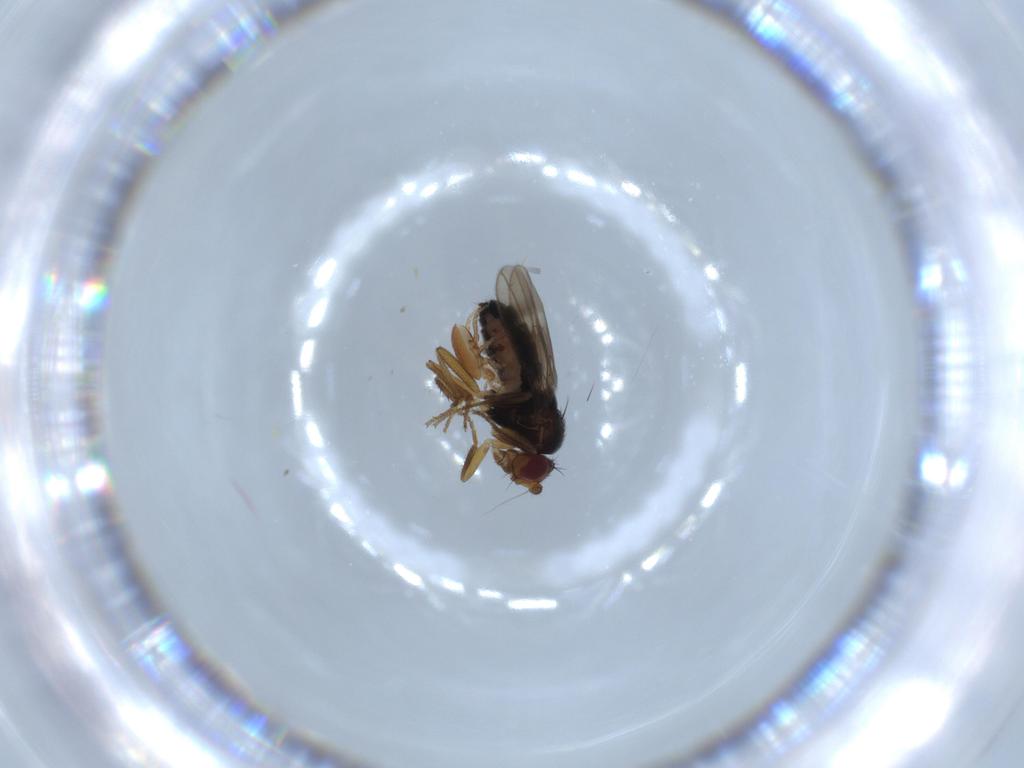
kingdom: Animalia
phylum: Arthropoda
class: Insecta
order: Diptera
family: Sphaeroceridae
